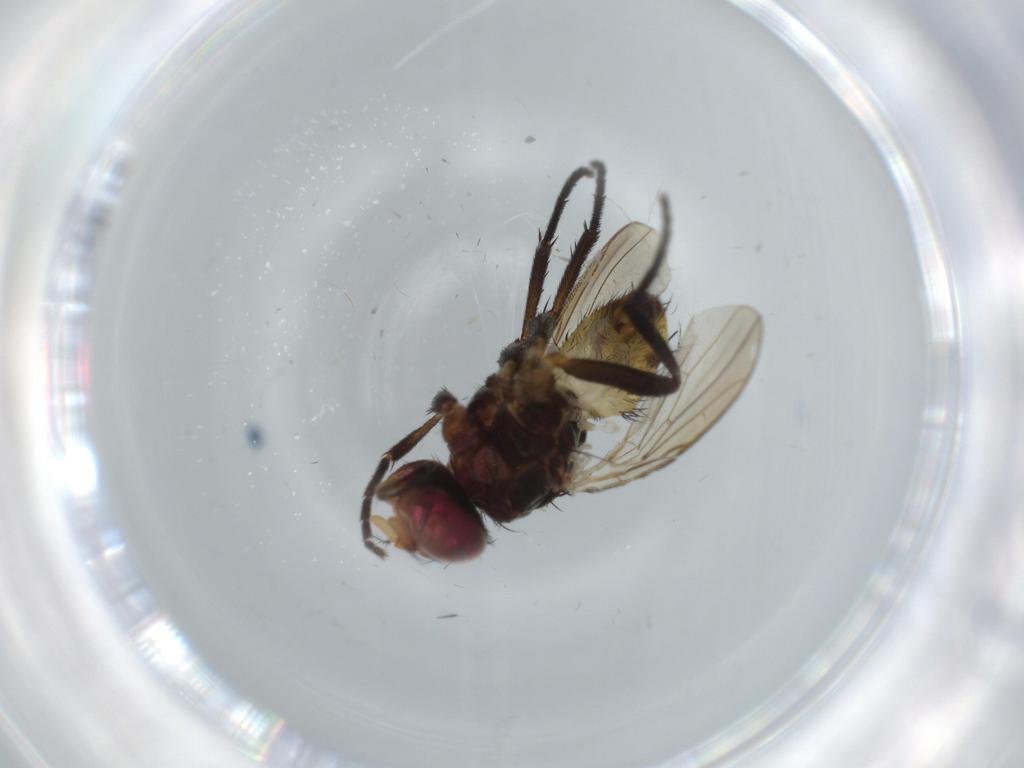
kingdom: Animalia
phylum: Arthropoda
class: Insecta
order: Diptera
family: Anthomyiidae
